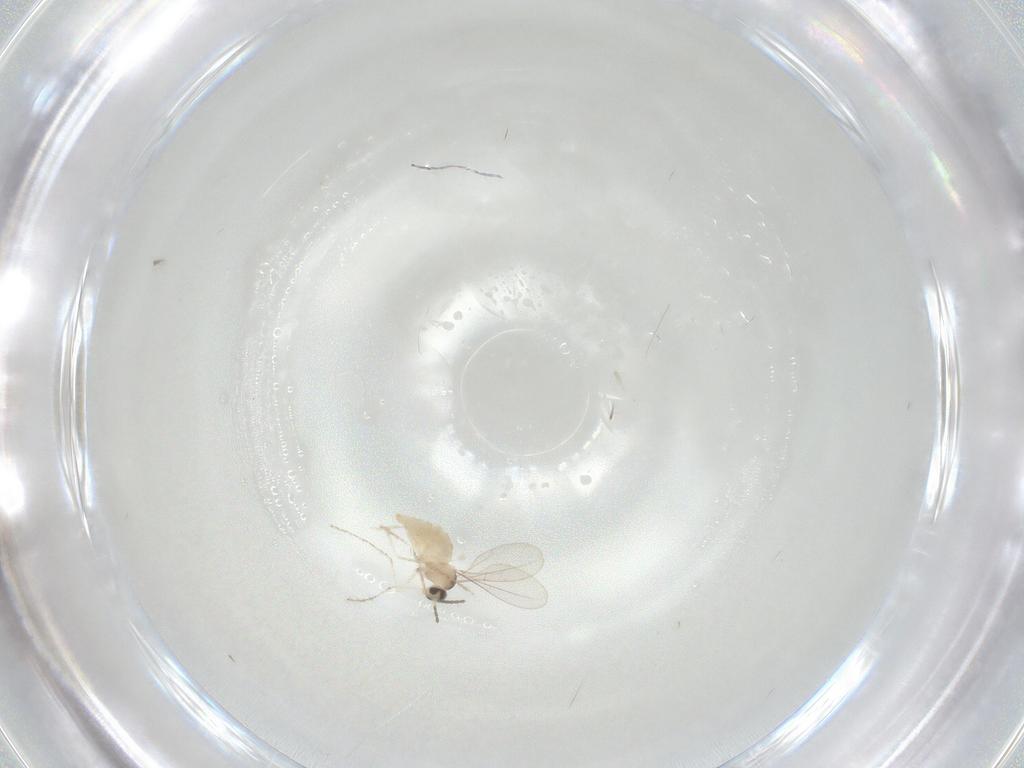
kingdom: Animalia
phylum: Arthropoda
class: Insecta
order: Diptera
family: Cecidomyiidae
